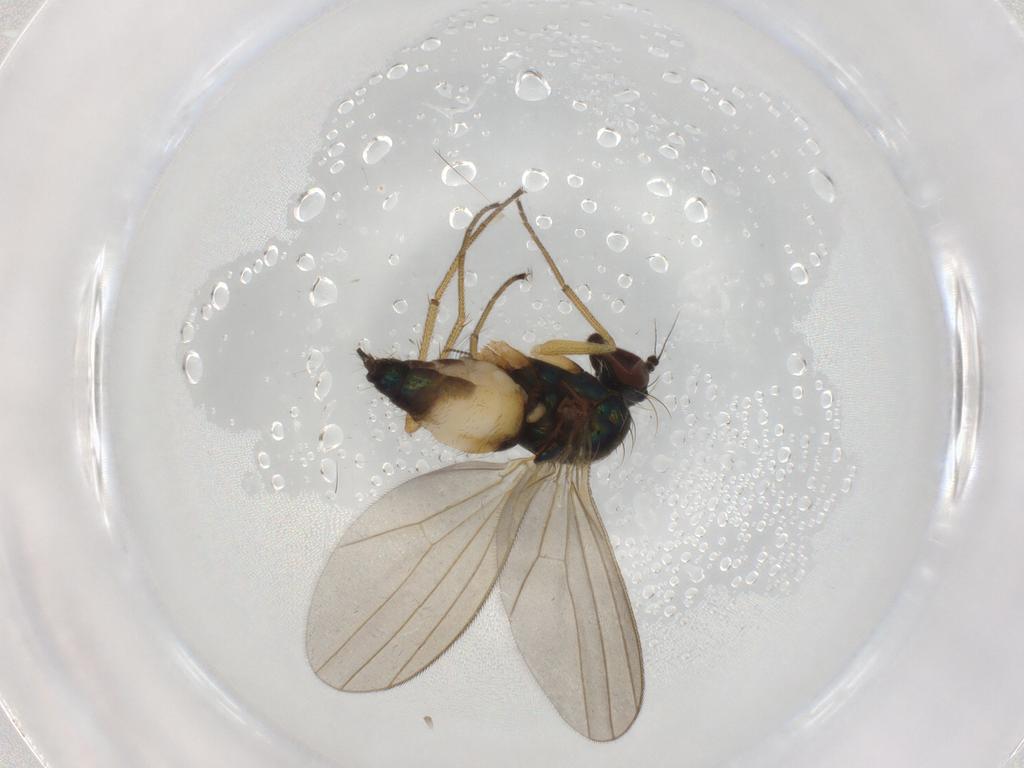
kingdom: Animalia
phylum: Arthropoda
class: Insecta
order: Diptera
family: Dolichopodidae
